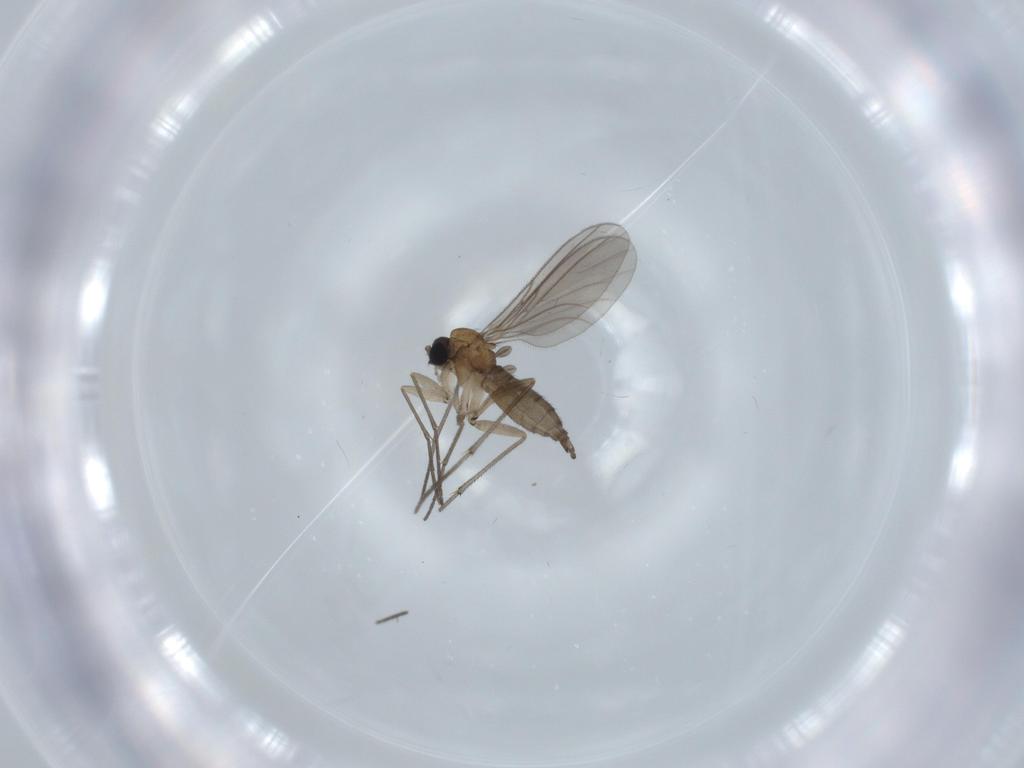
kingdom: Animalia
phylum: Arthropoda
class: Insecta
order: Diptera
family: Sciaridae
